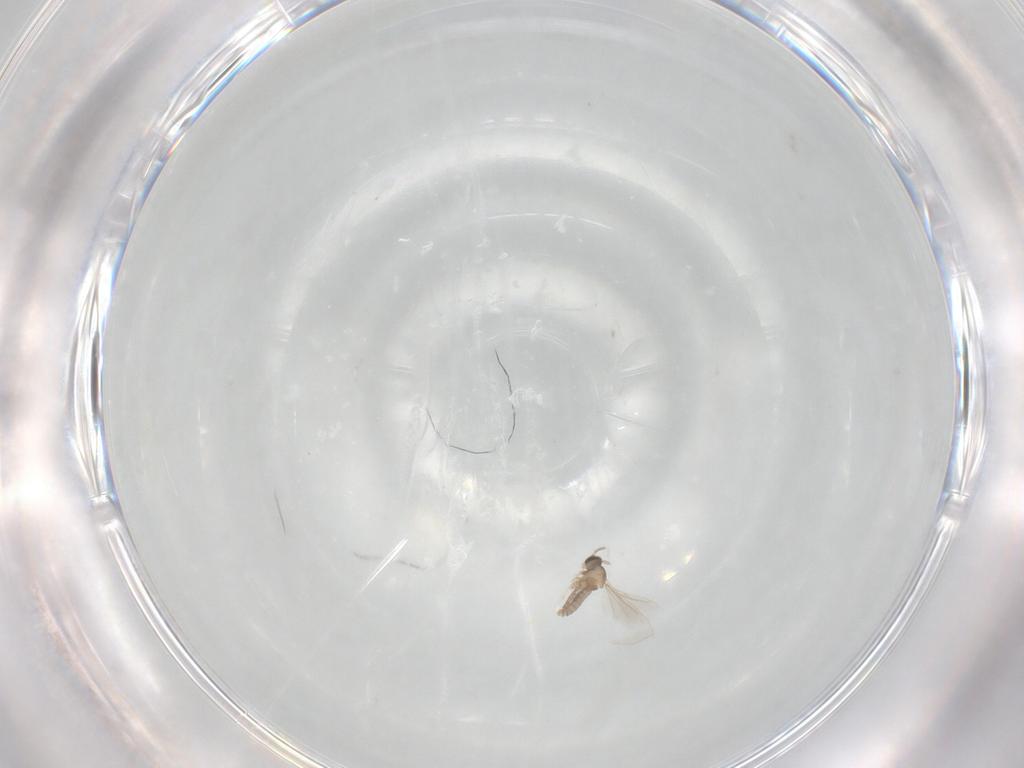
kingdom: Animalia
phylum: Arthropoda
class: Insecta
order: Diptera
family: Cecidomyiidae
